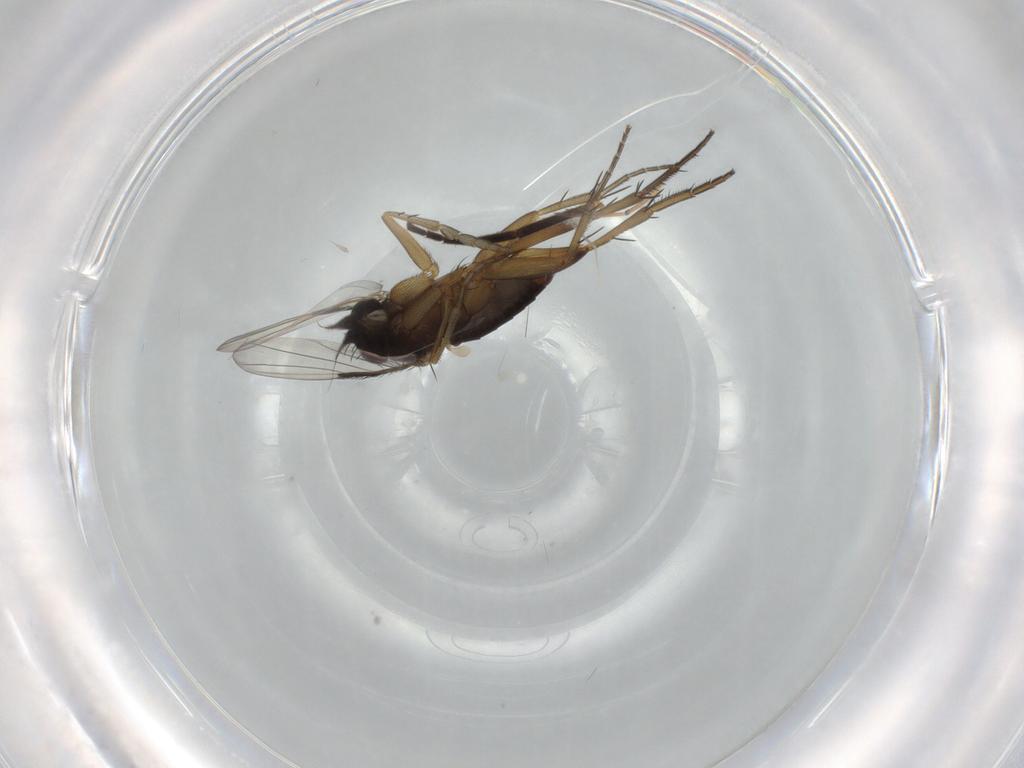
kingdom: Animalia
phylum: Arthropoda
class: Insecta
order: Diptera
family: Phoridae
